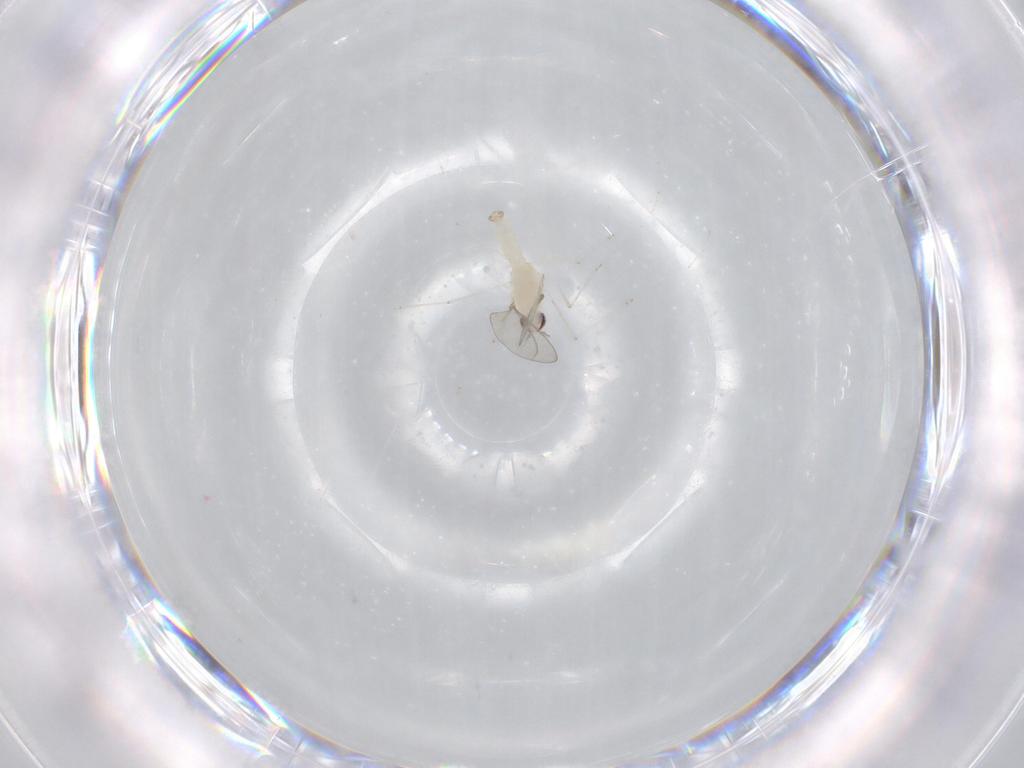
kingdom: Animalia
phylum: Arthropoda
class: Insecta
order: Diptera
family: Cecidomyiidae
